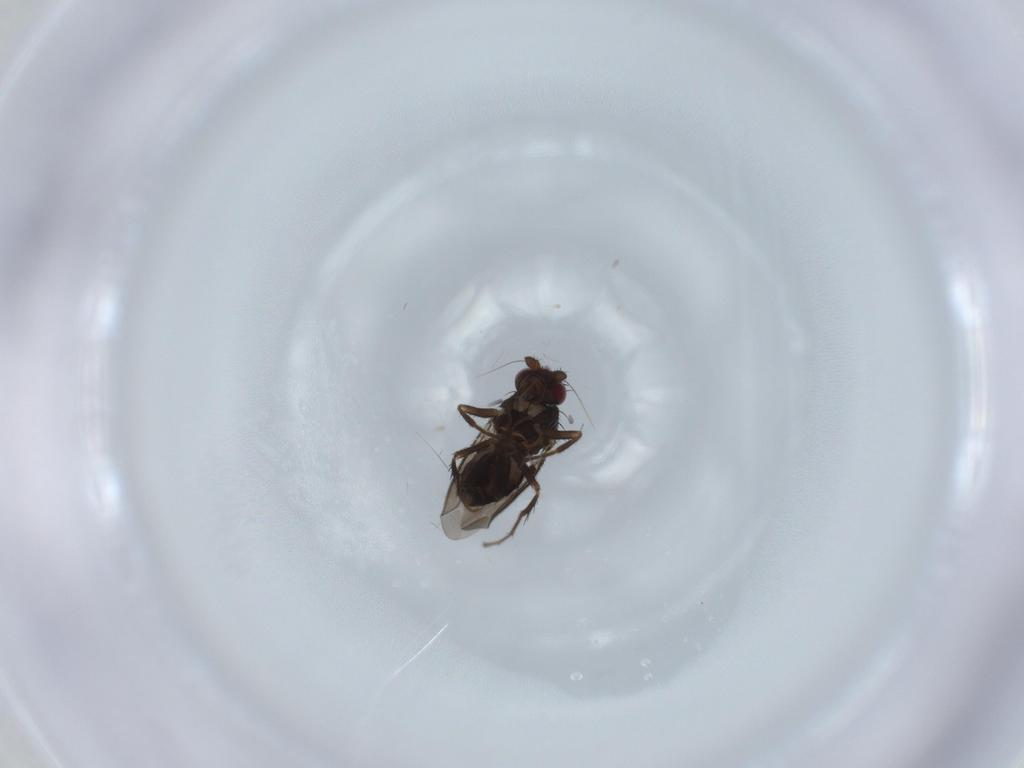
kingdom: Animalia
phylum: Arthropoda
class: Insecta
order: Diptera
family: Sphaeroceridae
